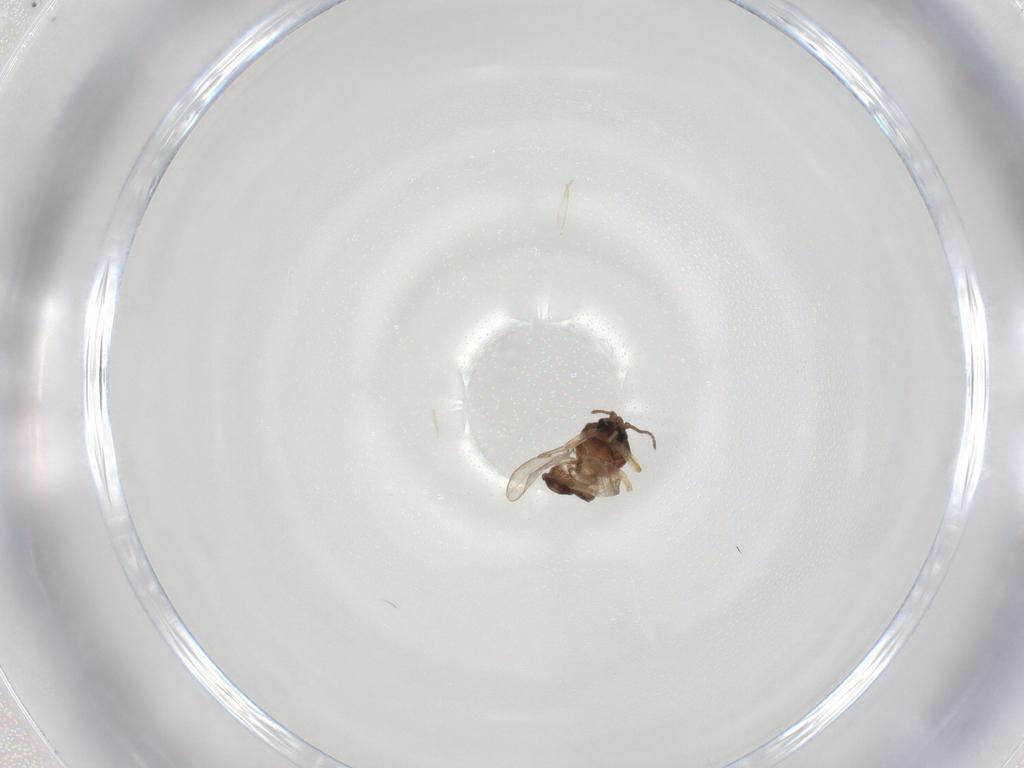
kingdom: Animalia
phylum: Arthropoda
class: Insecta
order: Diptera
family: Ceratopogonidae
